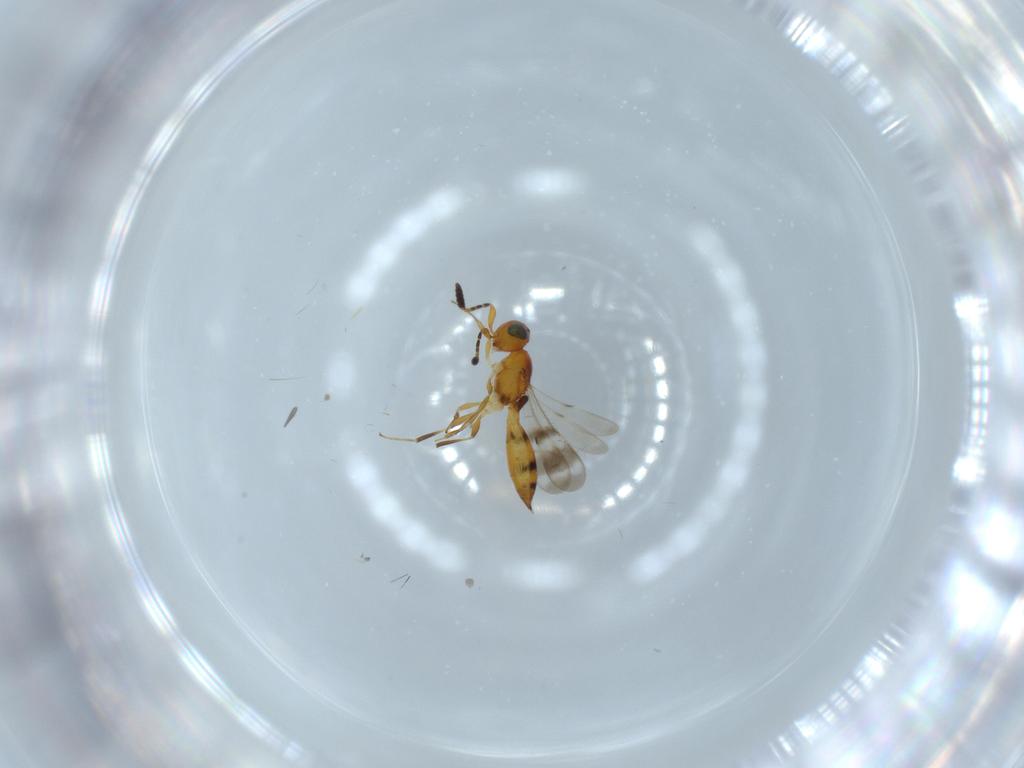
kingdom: Animalia
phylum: Arthropoda
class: Insecta
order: Hymenoptera
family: Scelionidae
